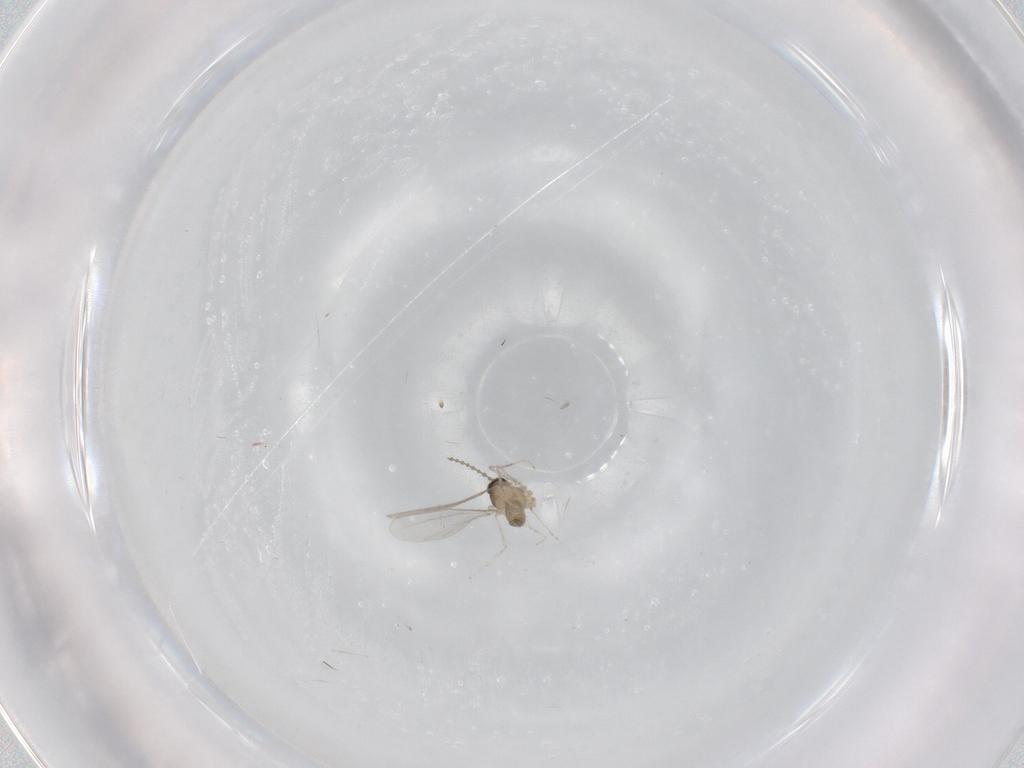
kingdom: Animalia
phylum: Arthropoda
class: Insecta
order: Diptera
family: Cecidomyiidae
